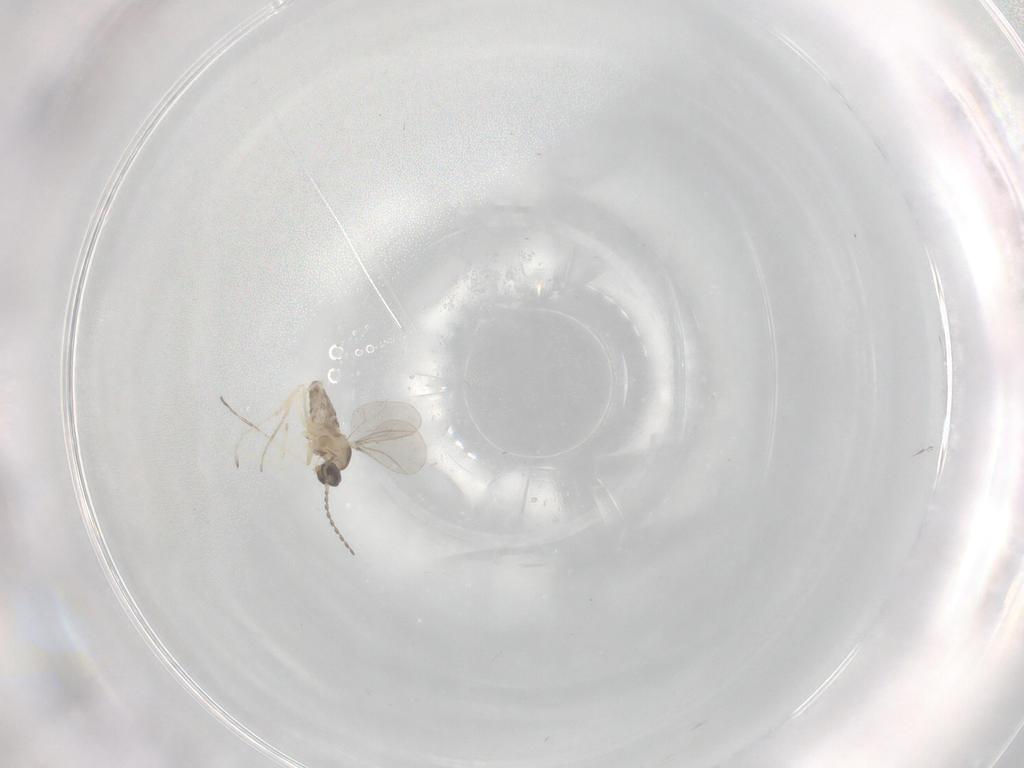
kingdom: Animalia
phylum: Arthropoda
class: Insecta
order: Diptera
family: Cecidomyiidae
